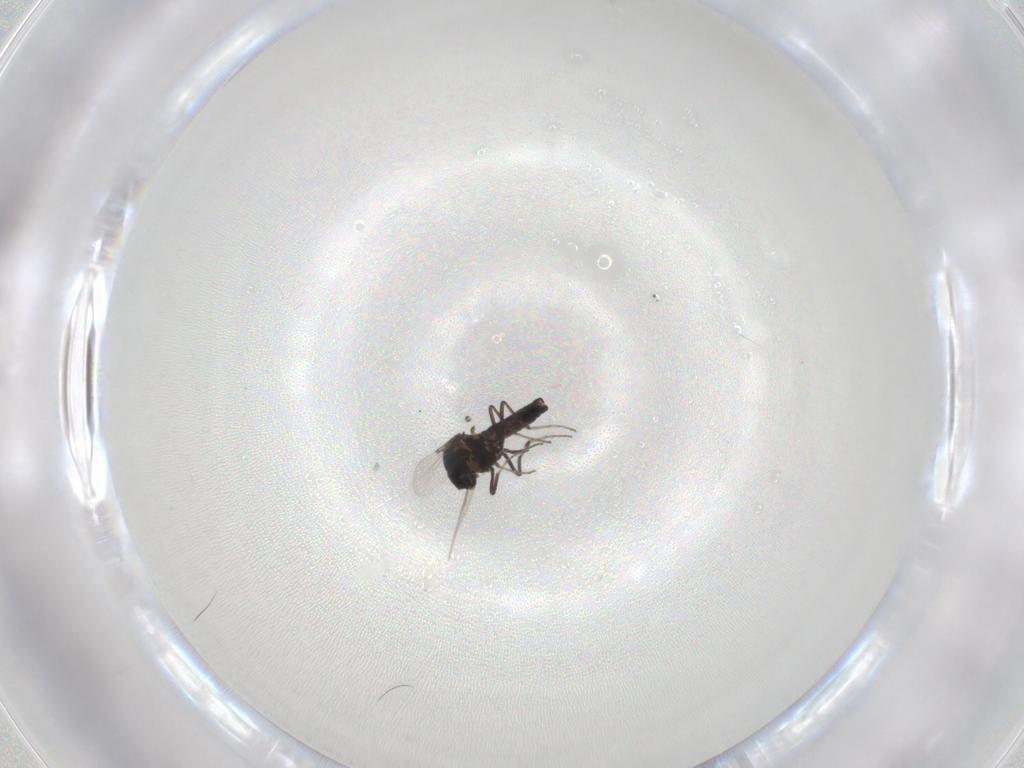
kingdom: Animalia
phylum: Arthropoda
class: Insecta
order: Diptera
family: Ceratopogonidae
